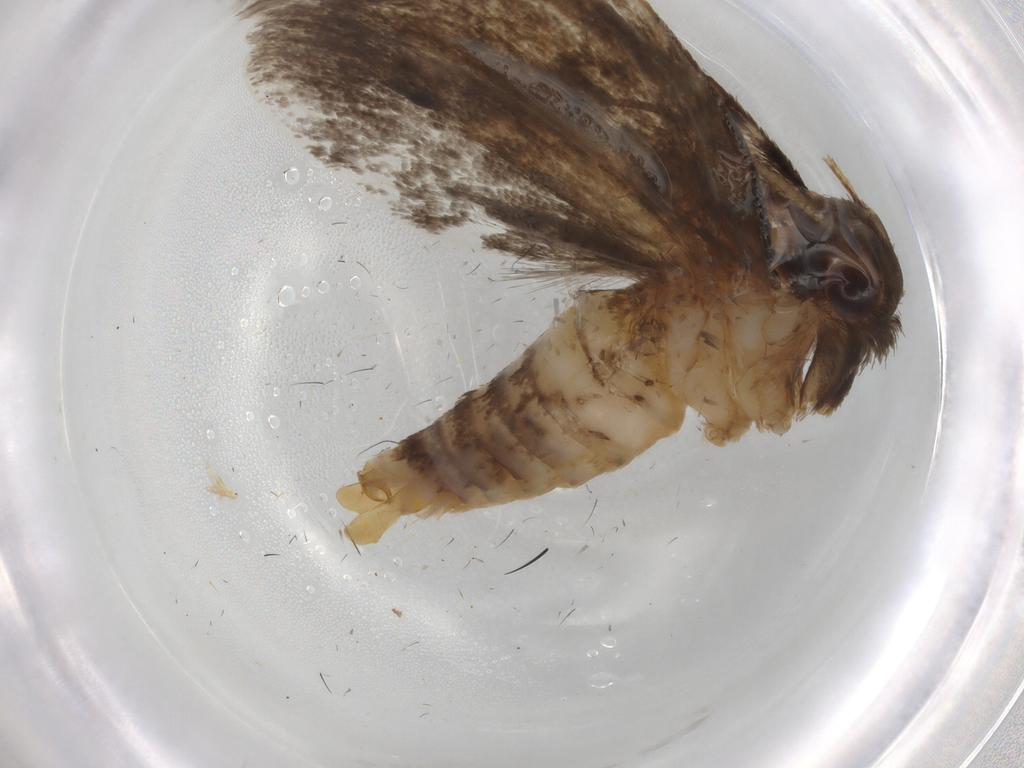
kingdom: Animalia
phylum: Arthropoda
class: Insecta
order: Lepidoptera
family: Tineidae
